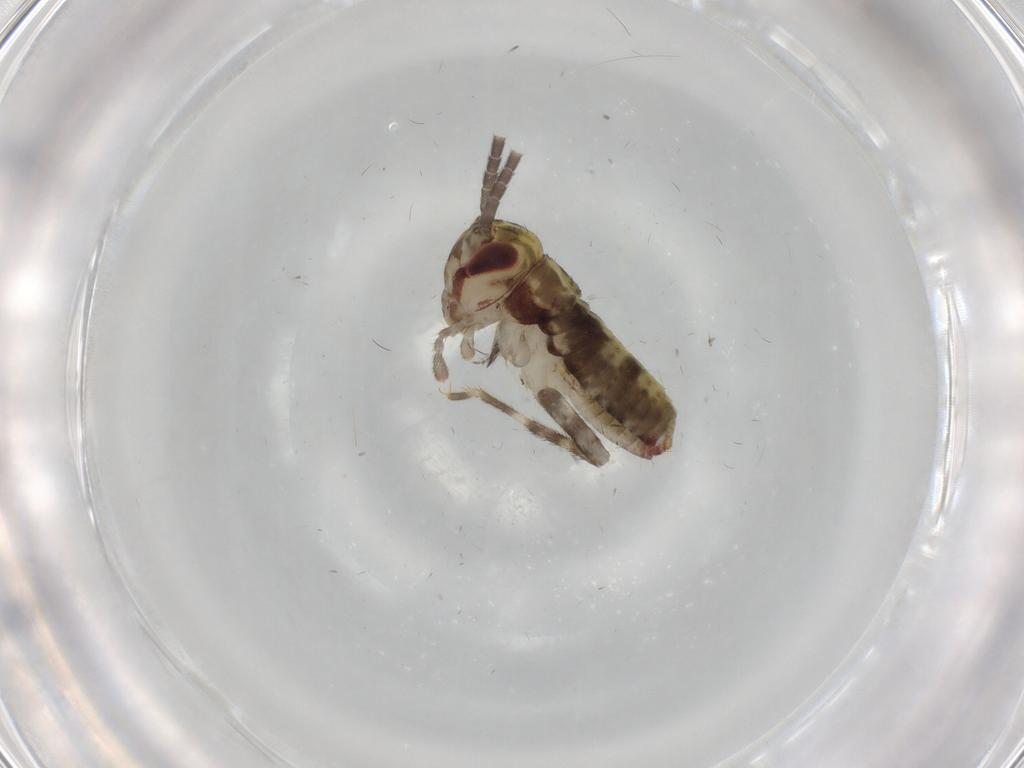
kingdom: Animalia
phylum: Arthropoda
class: Insecta
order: Orthoptera
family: Gryllidae
